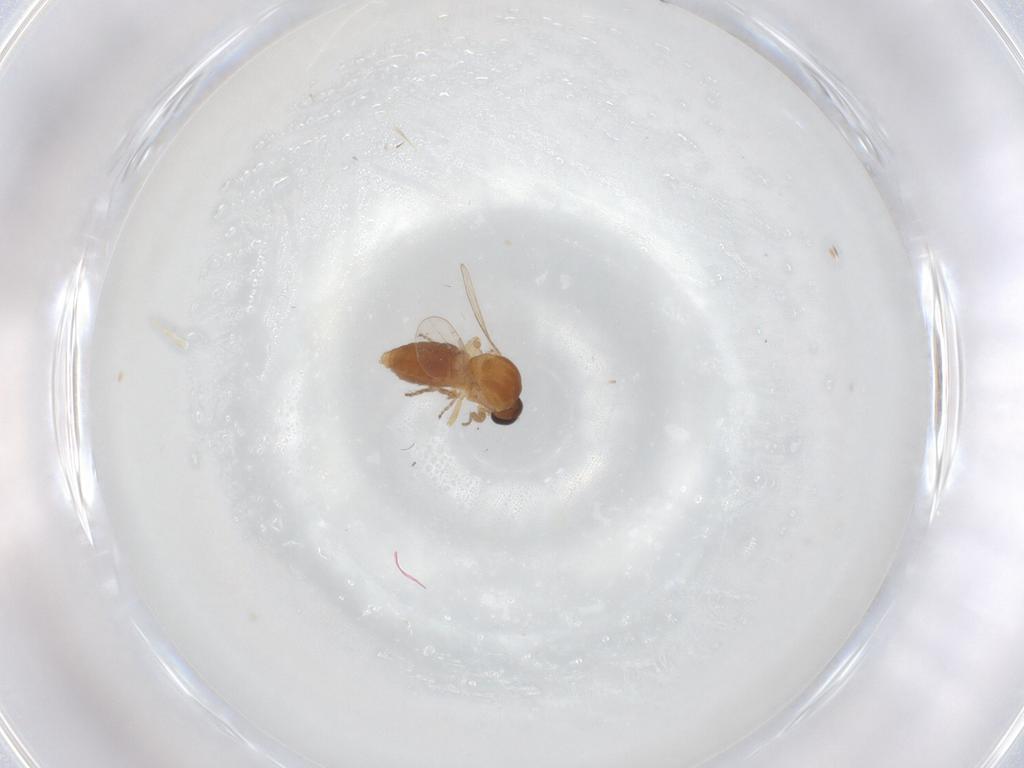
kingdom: Animalia
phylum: Arthropoda
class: Insecta
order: Diptera
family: Ceratopogonidae
